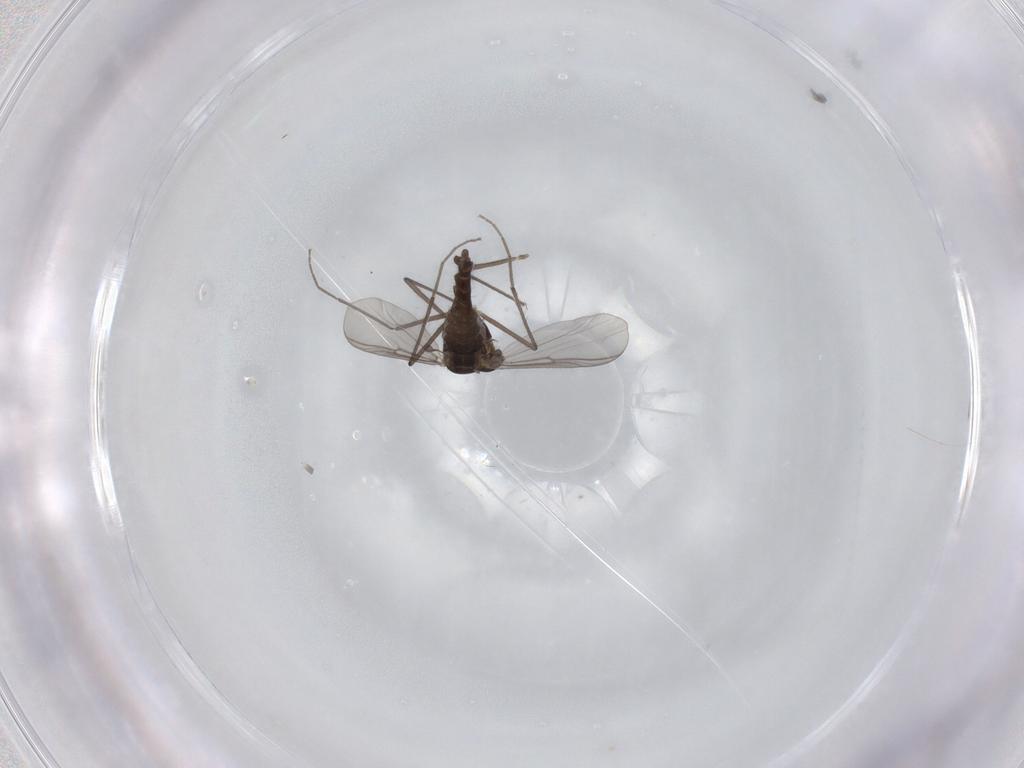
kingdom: Animalia
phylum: Arthropoda
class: Insecta
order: Diptera
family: Chironomidae
